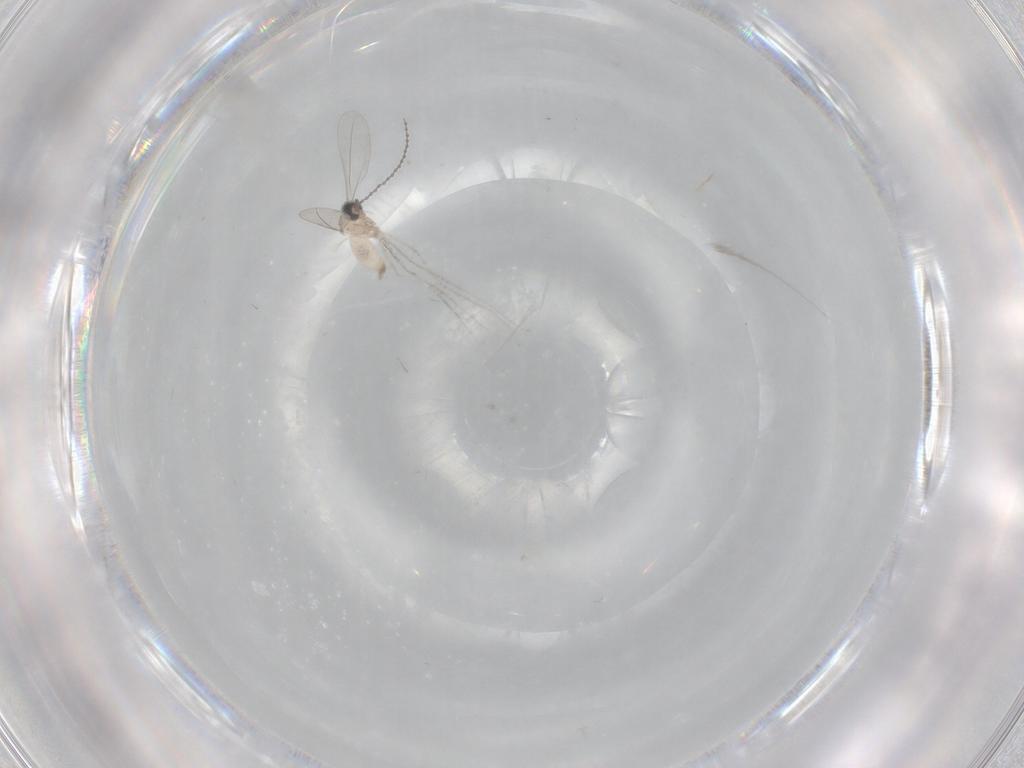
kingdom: Animalia
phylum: Arthropoda
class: Insecta
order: Diptera
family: Cecidomyiidae
